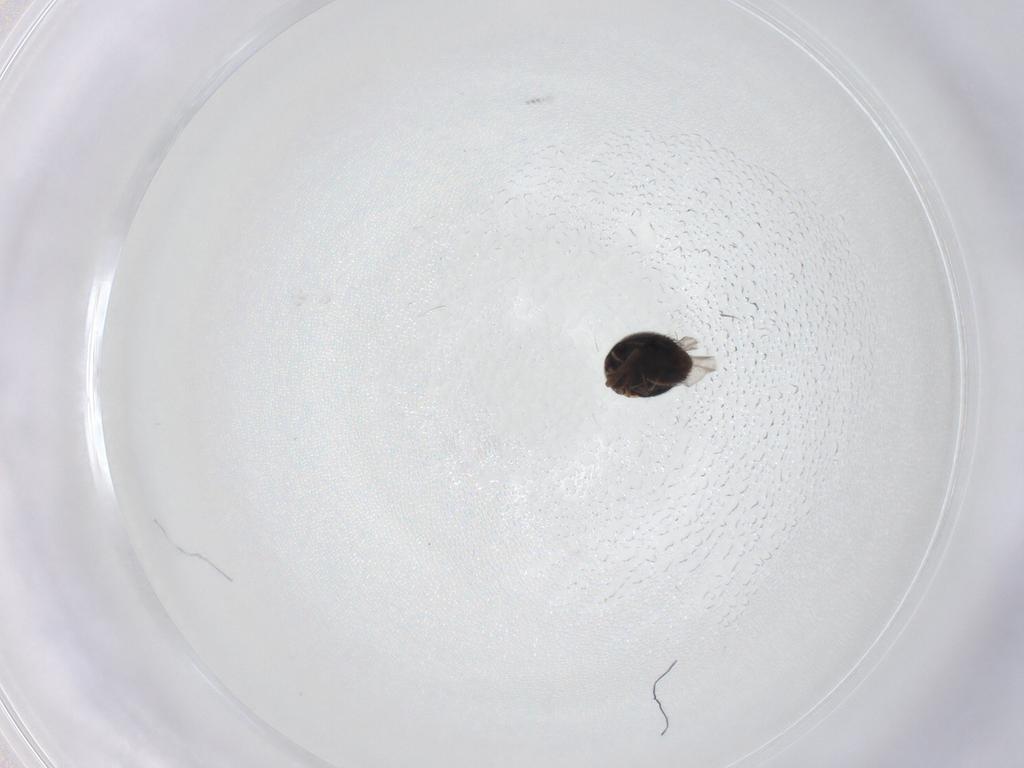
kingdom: Animalia
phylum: Arthropoda
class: Insecta
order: Coleoptera
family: Staphylinidae
